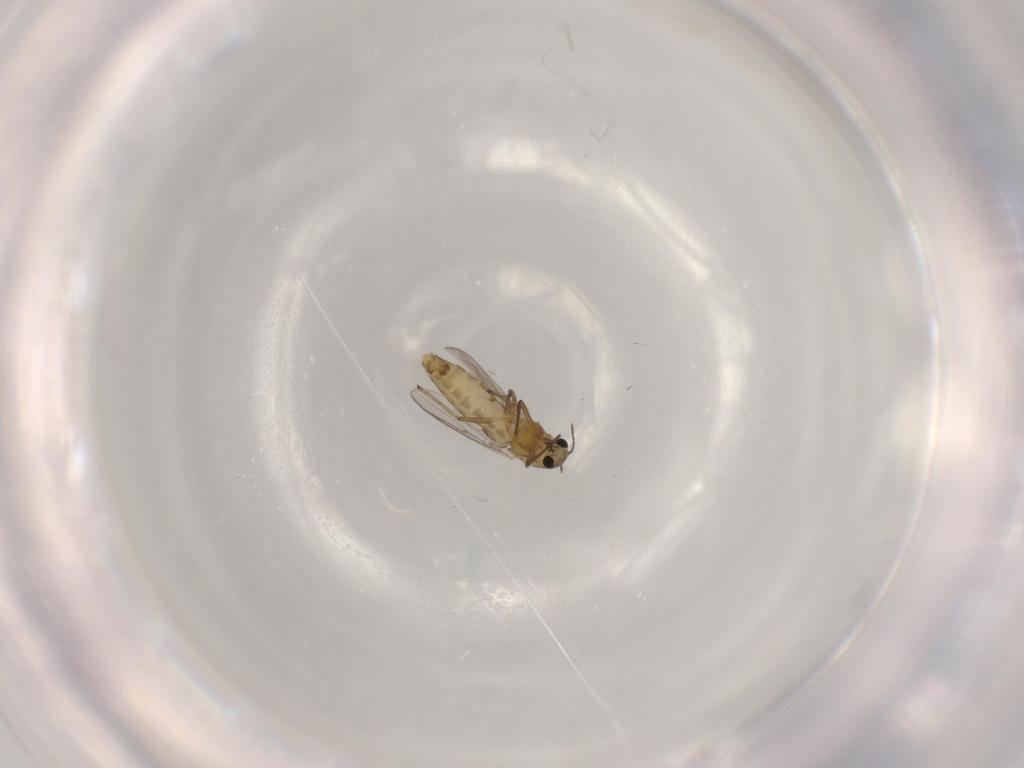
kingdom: Animalia
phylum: Arthropoda
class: Insecta
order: Diptera
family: Chironomidae
